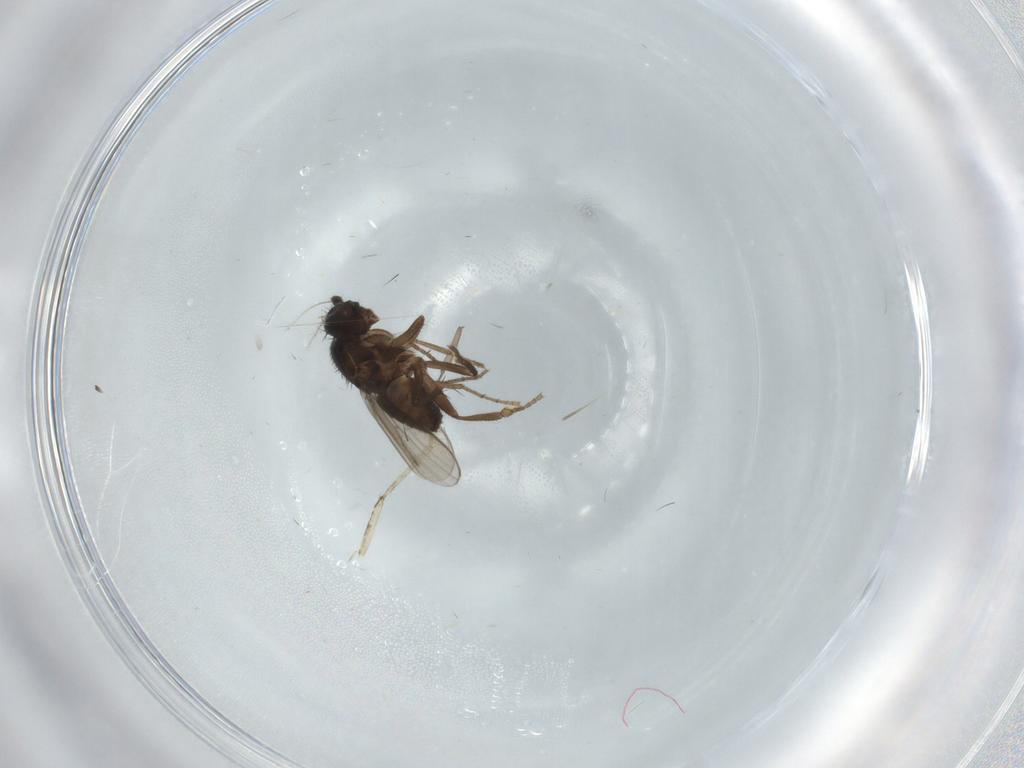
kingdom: Animalia
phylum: Arthropoda
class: Insecta
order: Diptera
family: Sphaeroceridae
